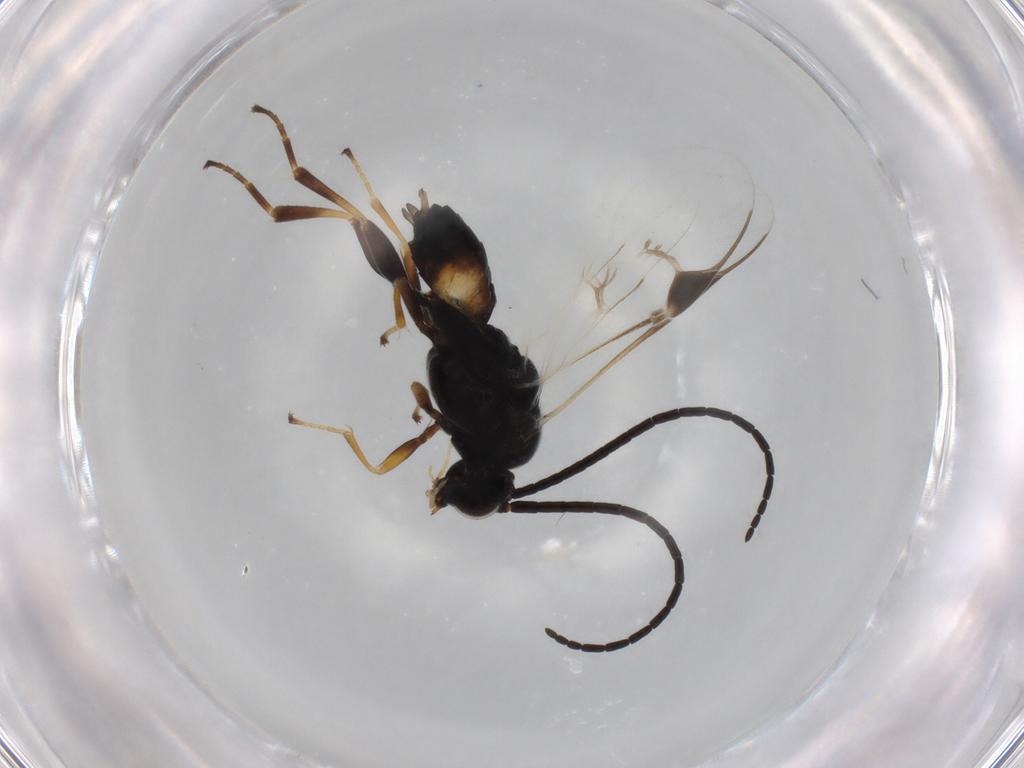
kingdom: Animalia
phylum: Arthropoda
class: Insecta
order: Hymenoptera
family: Braconidae
